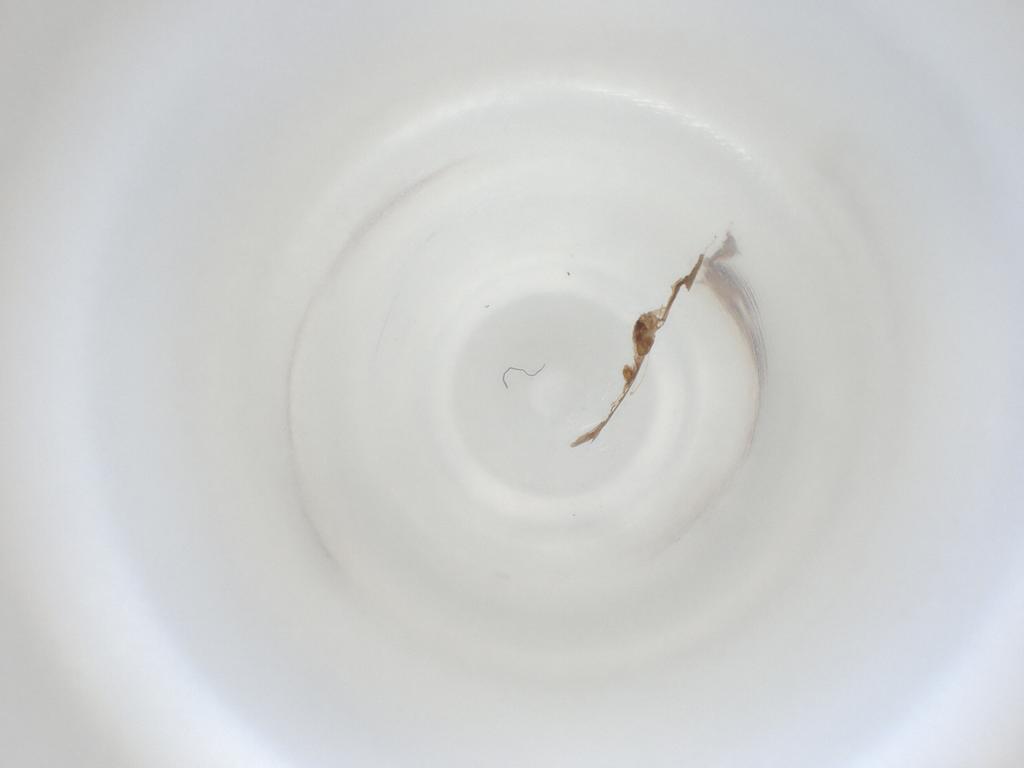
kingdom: Animalia
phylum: Arthropoda
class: Insecta
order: Diptera
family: Cecidomyiidae
